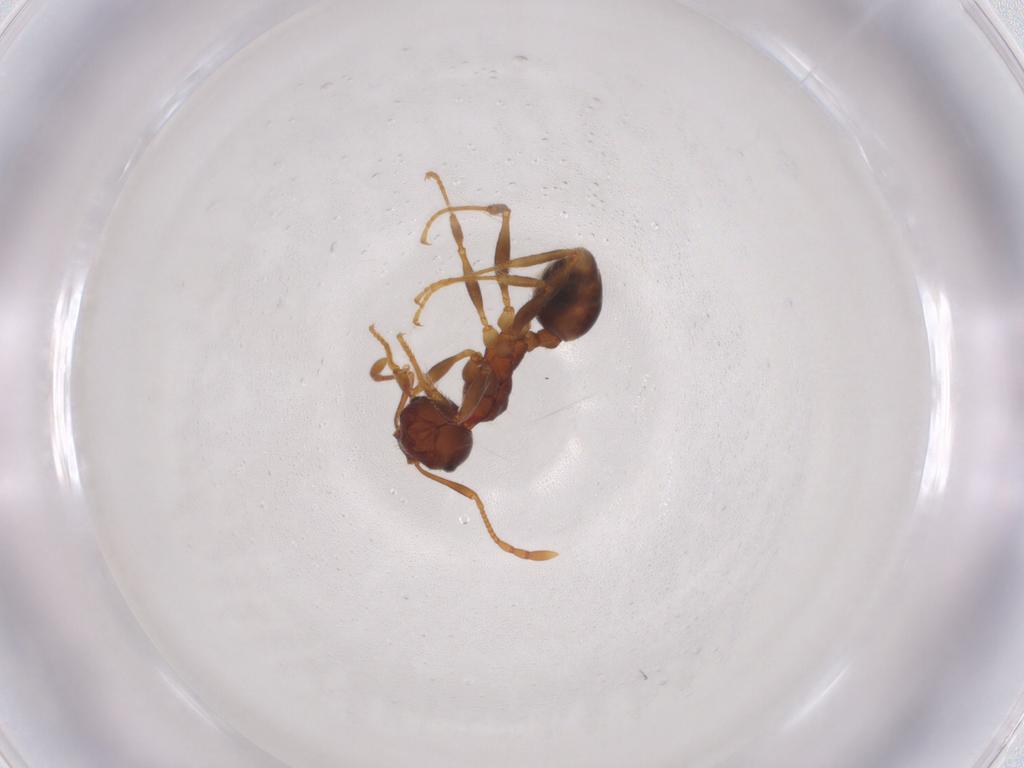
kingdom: Animalia
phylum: Arthropoda
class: Insecta
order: Hymenoptera
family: Formicidae
